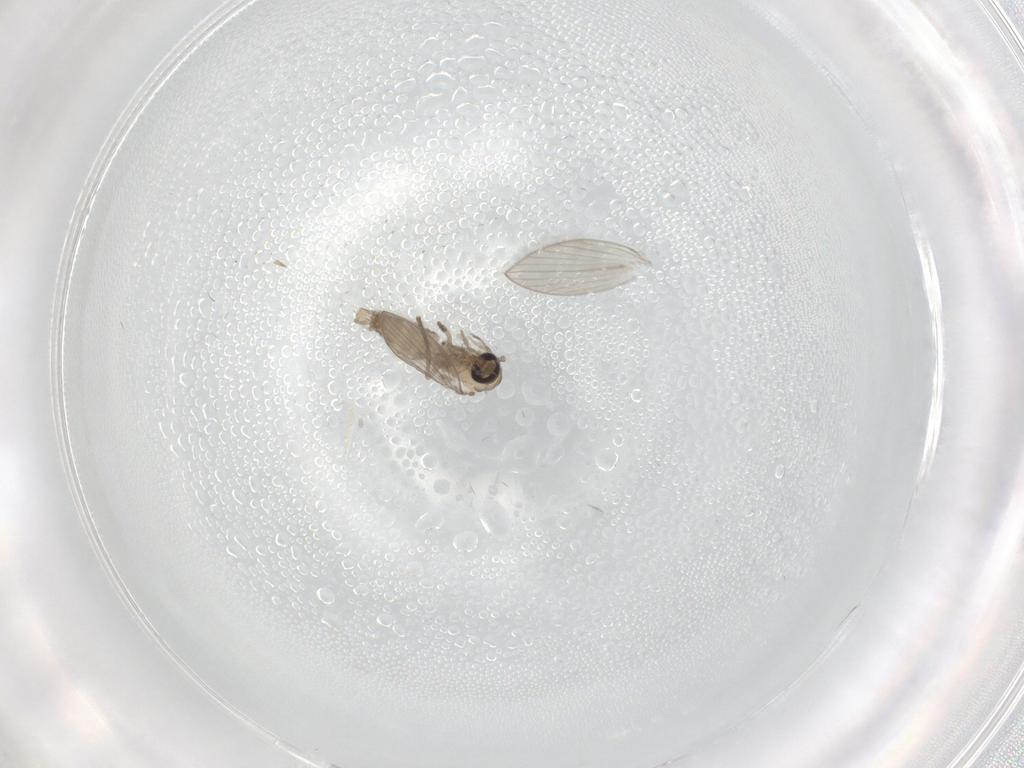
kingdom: Animalia
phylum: Arthropoda
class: Insecta
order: Diptera
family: Psychodidae
